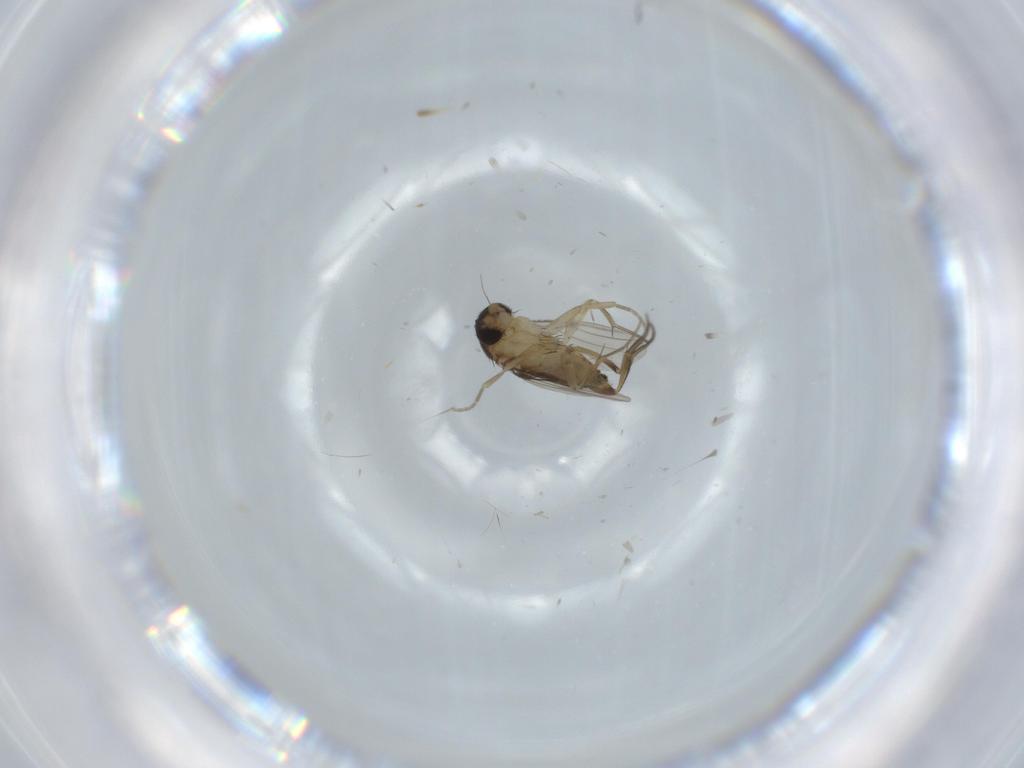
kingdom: Animalia
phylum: Arthropoda
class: Insecta
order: Diptera
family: Phoridae
